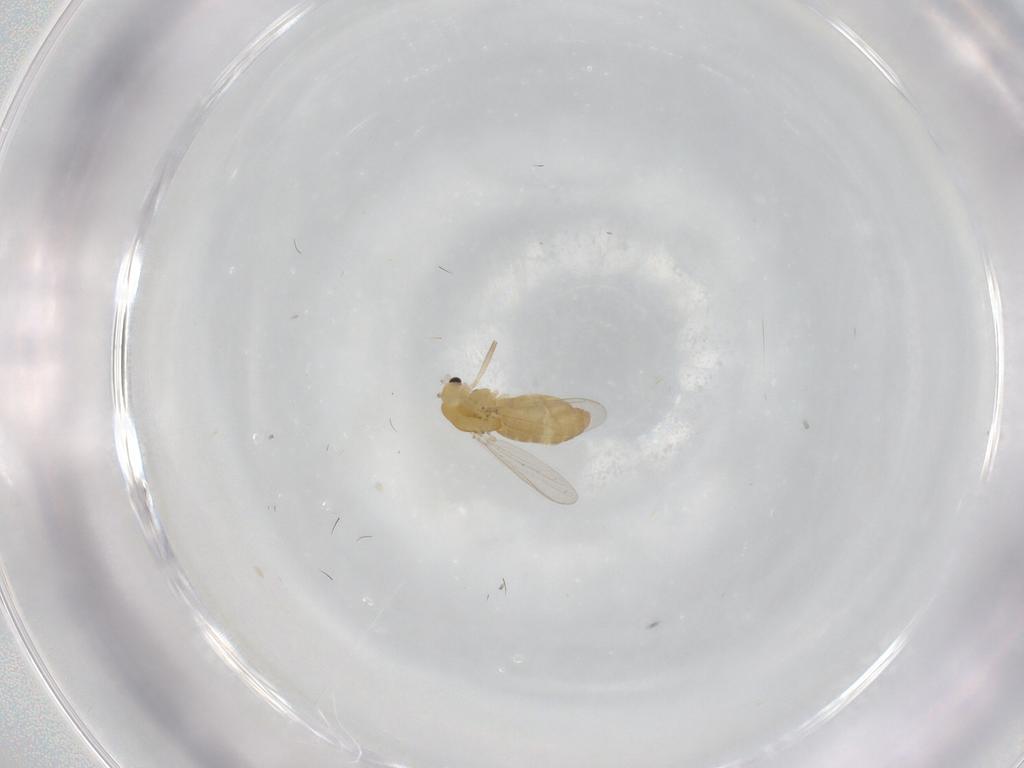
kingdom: Animalia
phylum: Arthropoda
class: Insecta
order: Diptera
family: Chironomidae
